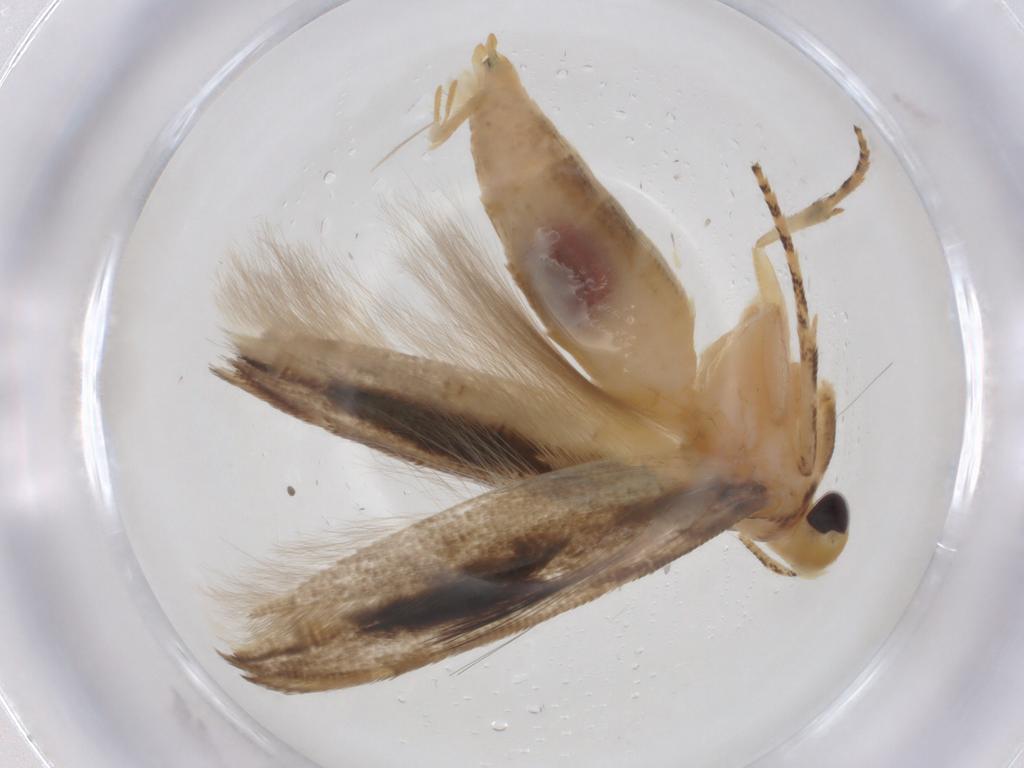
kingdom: Animalia
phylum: Arthropoda
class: Insecta
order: Lepidoptera
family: Momphidae
